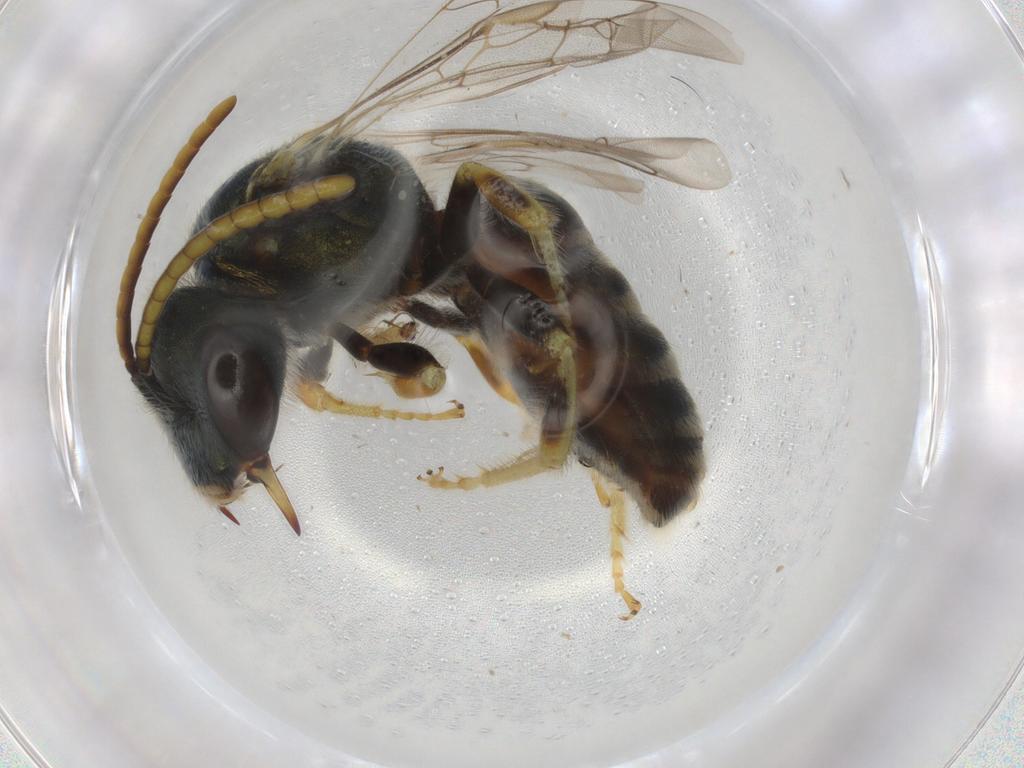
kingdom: Animalia
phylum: Arthropoda
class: Insecta
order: Hymenoptera
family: Mymaridae
